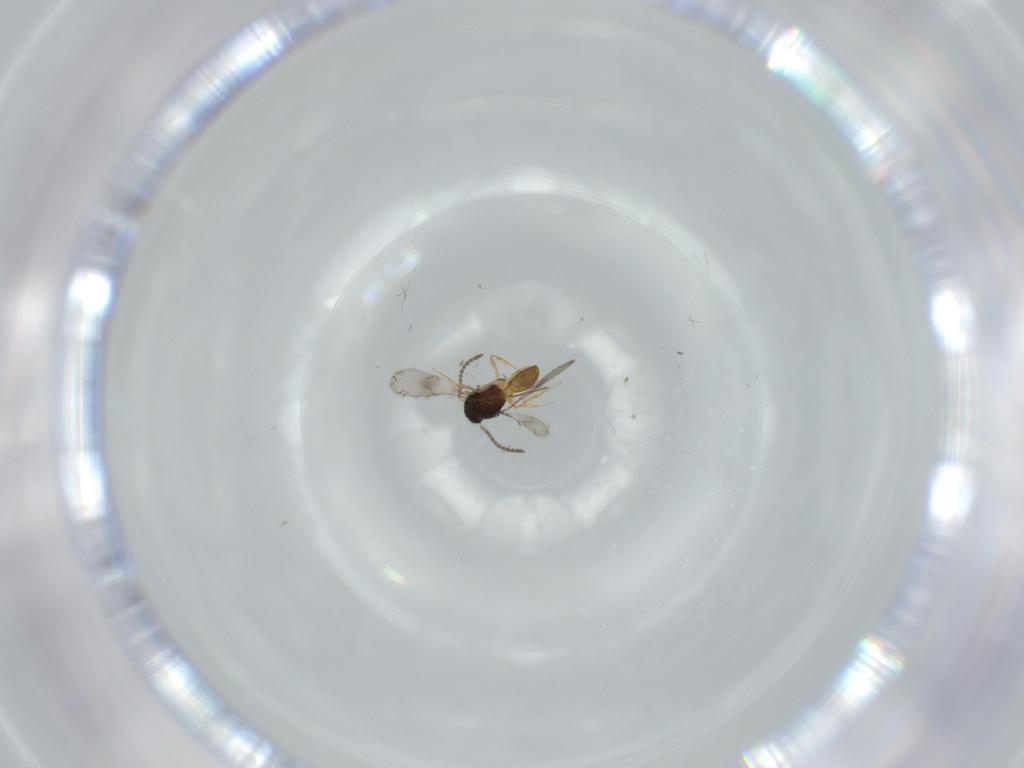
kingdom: Animalia
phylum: Arthropoda
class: Insecta
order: Hymenoptera
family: Scelionidae
